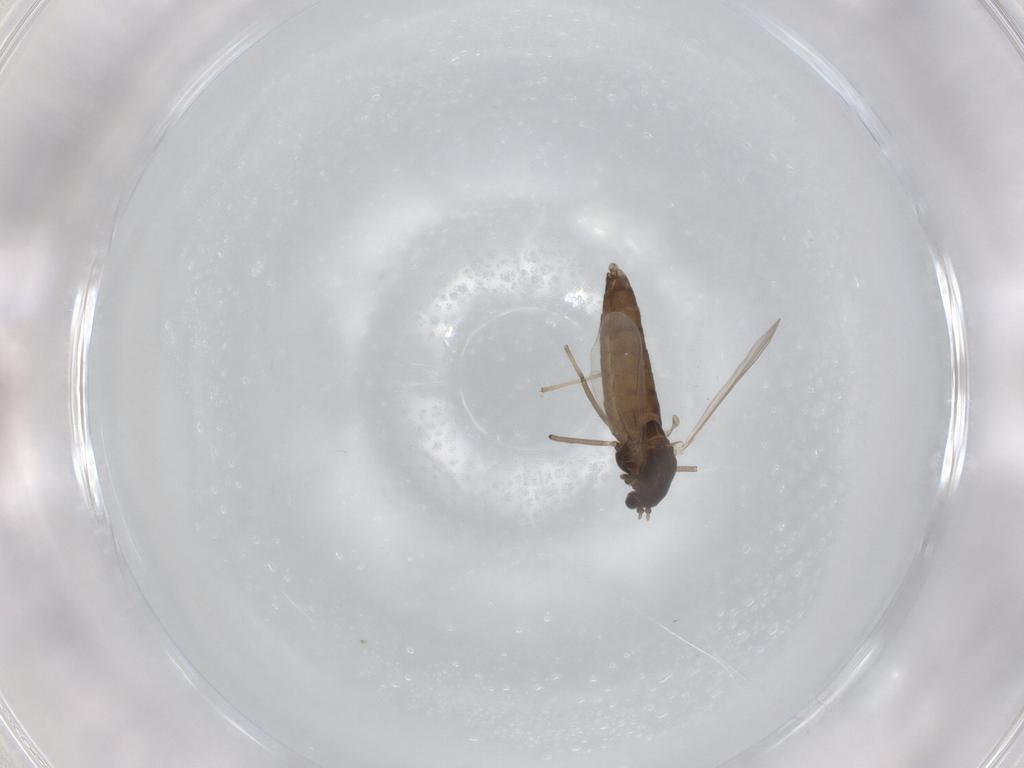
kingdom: Animalia
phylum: Arthropoda
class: Insecta
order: Diptera
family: Chironomidae
